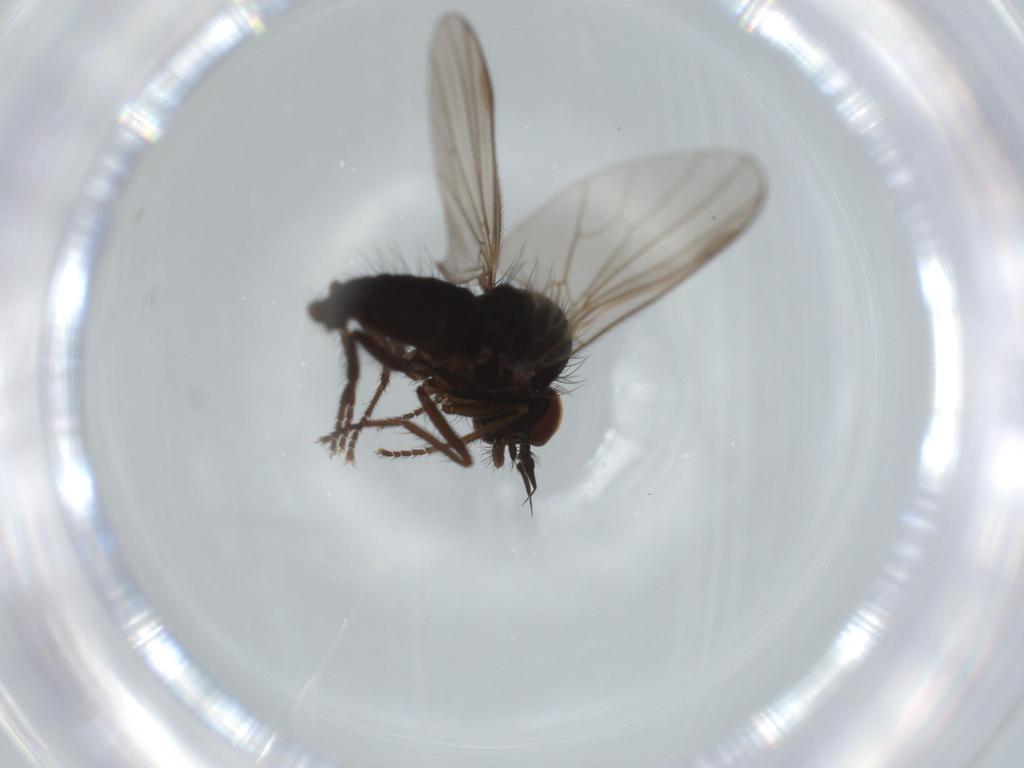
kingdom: Animalia
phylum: Arthropoda
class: Insecta
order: Diptera
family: Dolichopodidae
